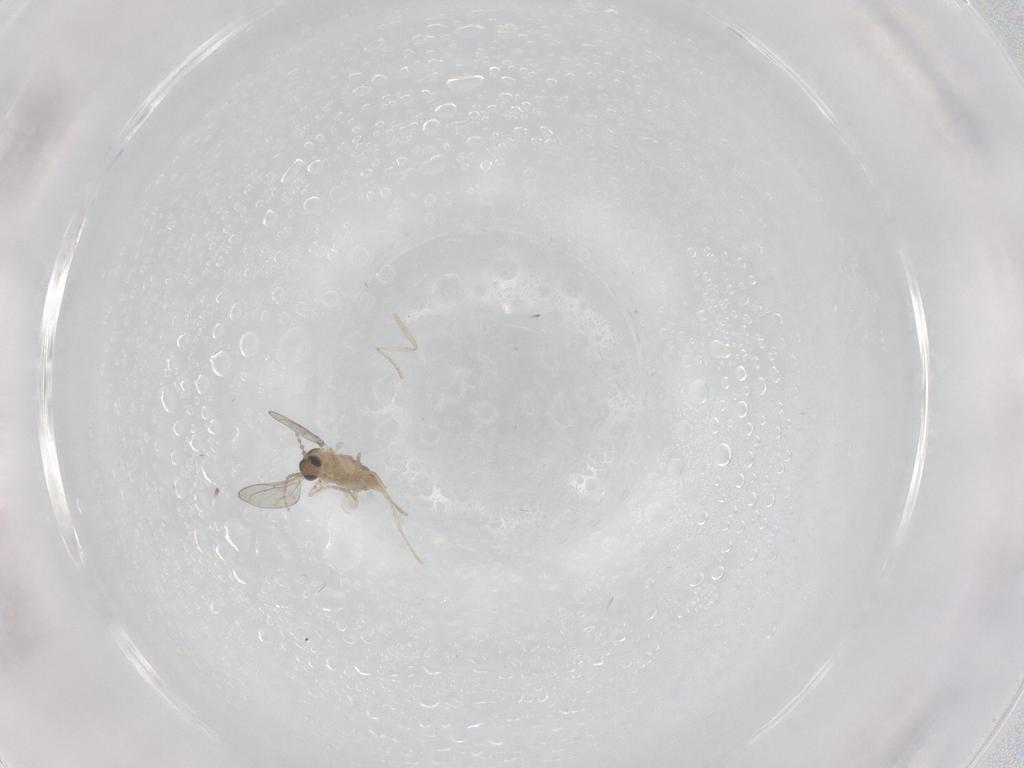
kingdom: Animalia
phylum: Arthropoda
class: Insecta
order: Diptera
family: Cecidomyiidae
